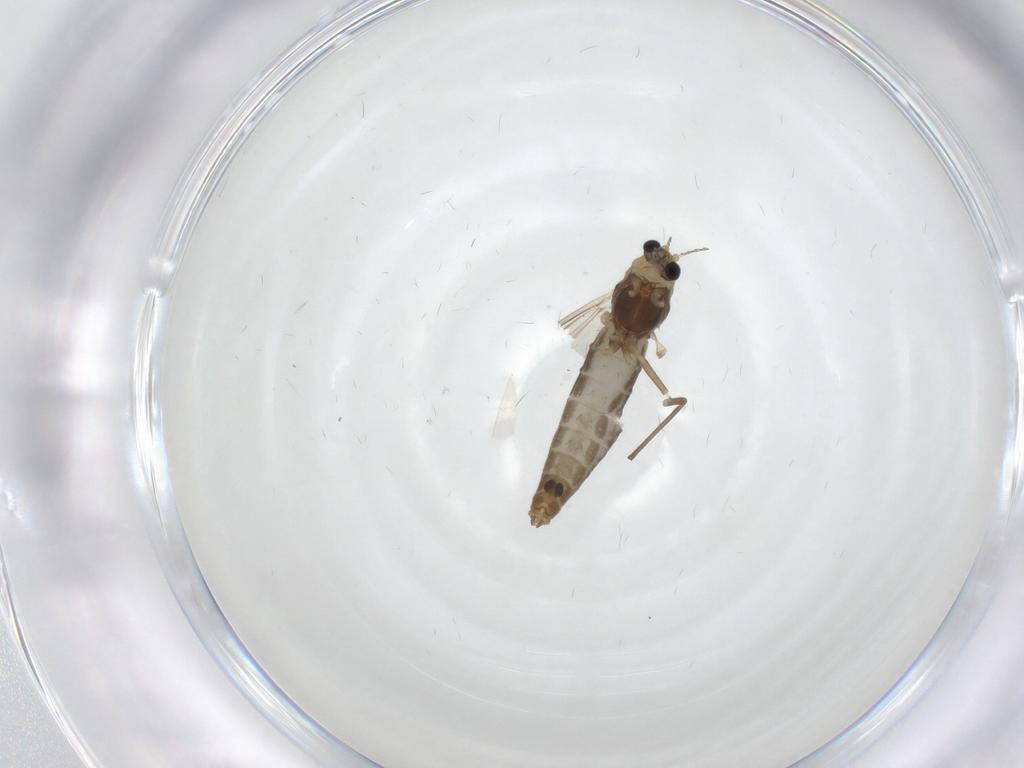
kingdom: Animalia
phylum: Arthropoda
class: Insecta
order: Diptera
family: Chironomidae
